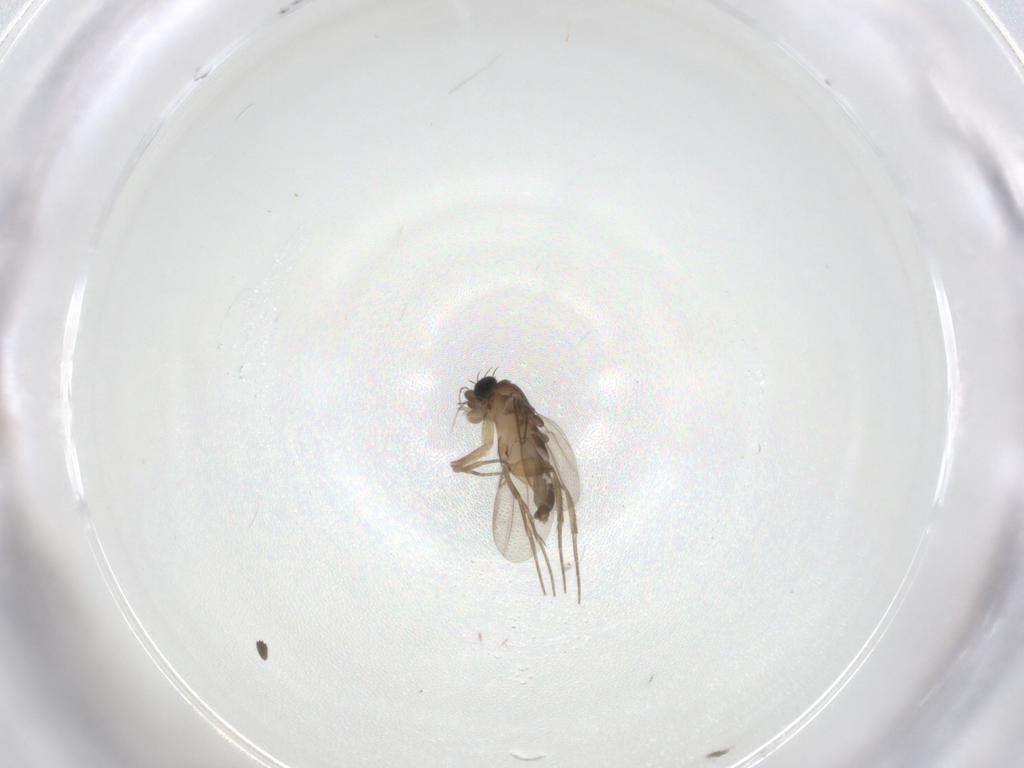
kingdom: Animalia
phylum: Arthropoda
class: Insecta
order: Diptera
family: Phoridae
